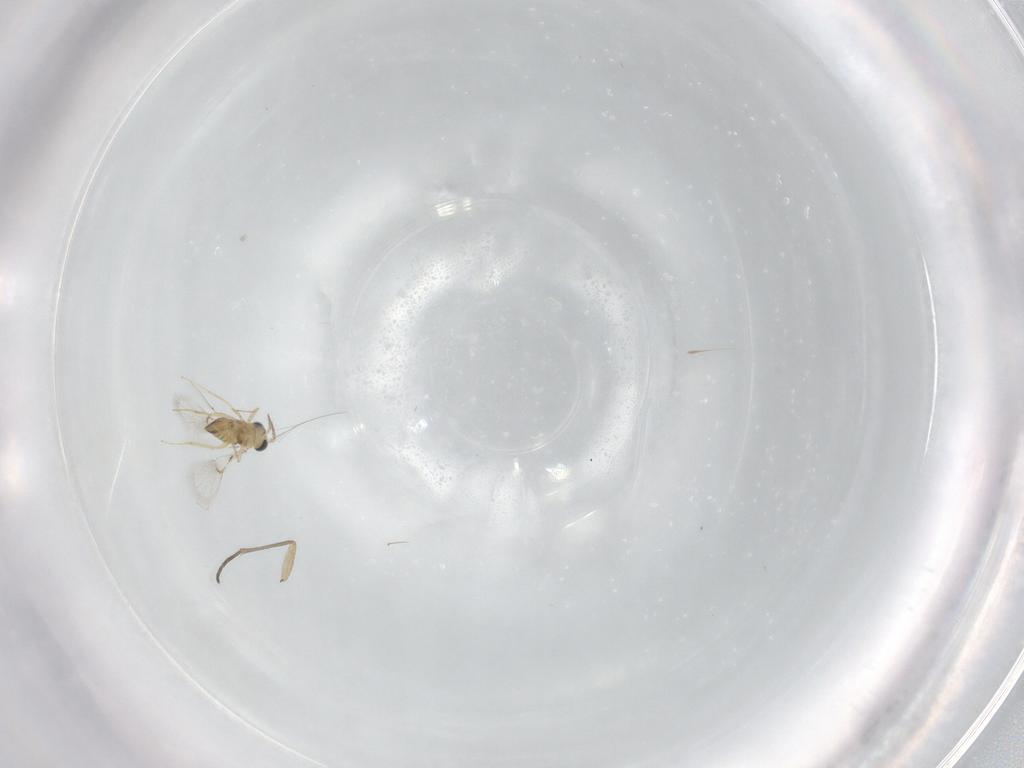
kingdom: Animalia
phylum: Arthropoda
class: Insecta
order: Hymenoptera
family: Trichogrammatidae
